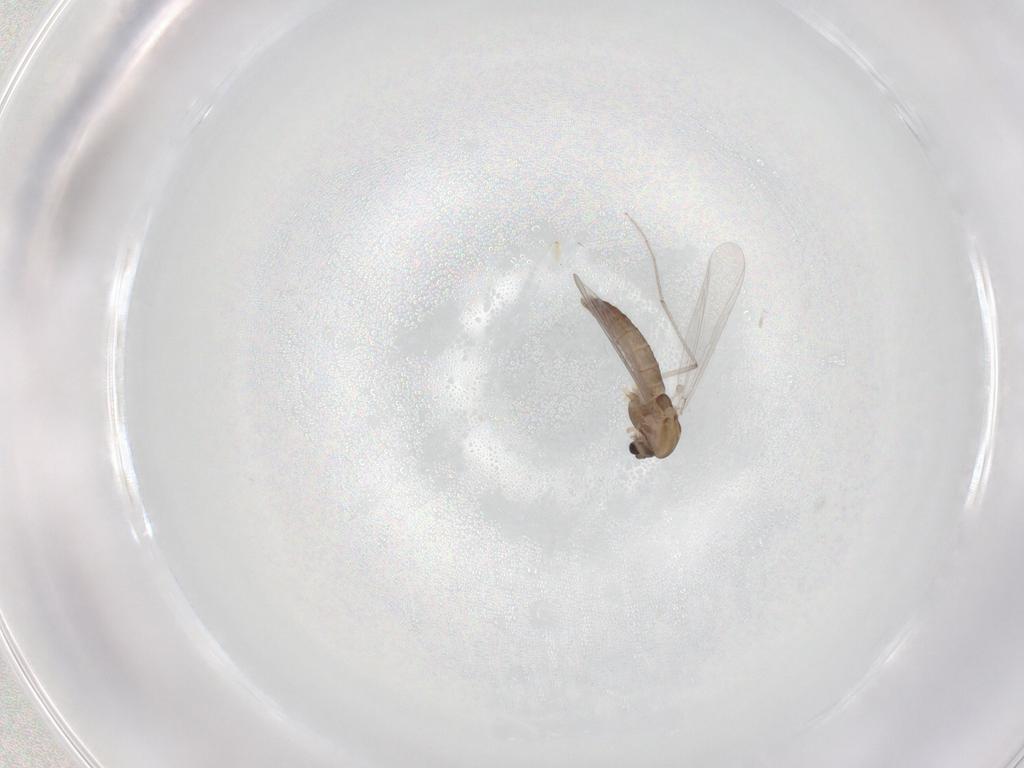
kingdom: Animalia
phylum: Arthropoda
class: Insecta
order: Diptera
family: Chironomidae
